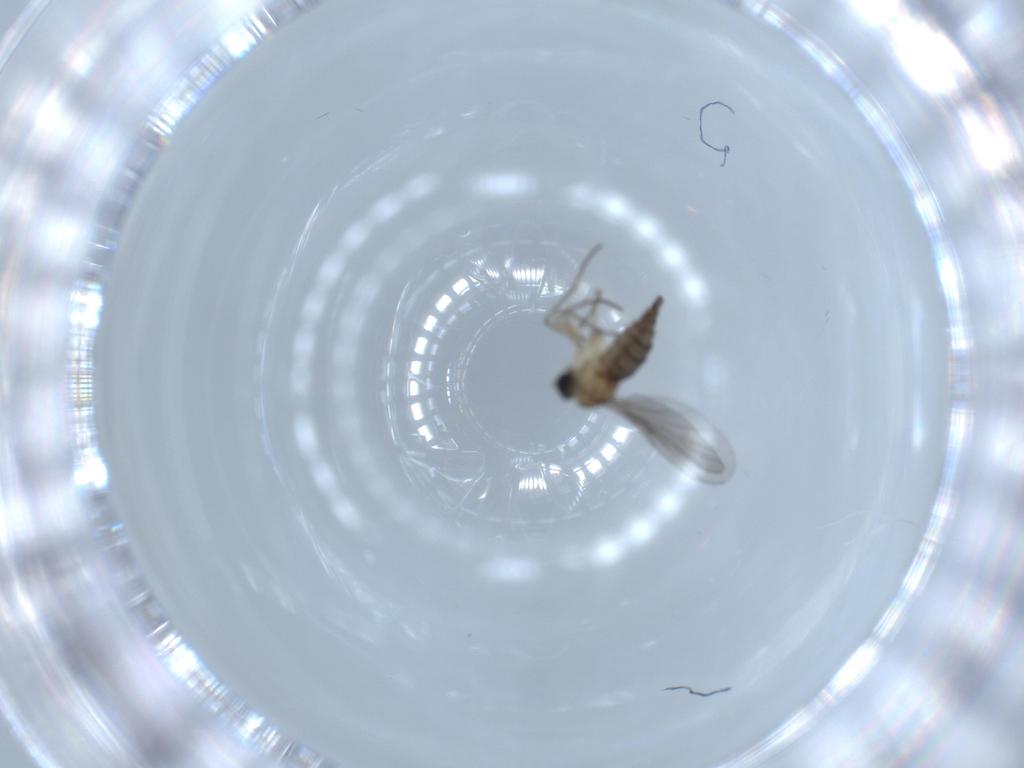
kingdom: Animalia
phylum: Arthropoda
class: Insecta
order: Diptera
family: Sciaridae
